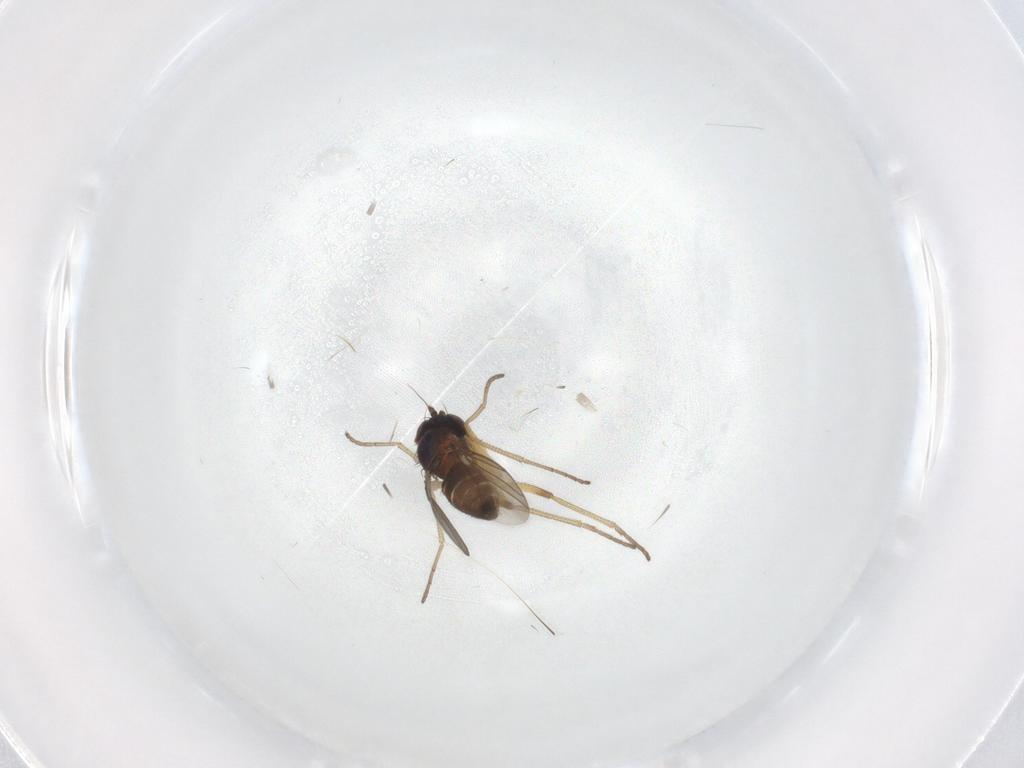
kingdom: Animalia
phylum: Arthropoda
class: Insecta
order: Diptera
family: Dolichopodidae
